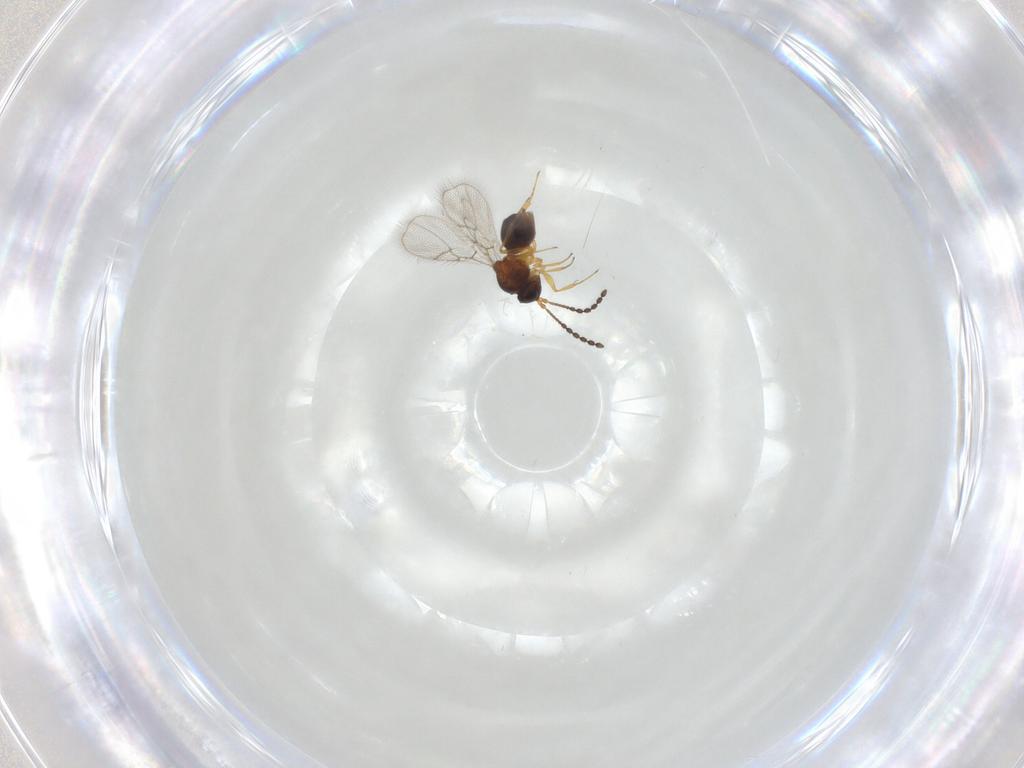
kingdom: Animalia
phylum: Arthropoda
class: Insecta
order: Hymenoptera
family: Figitidae
